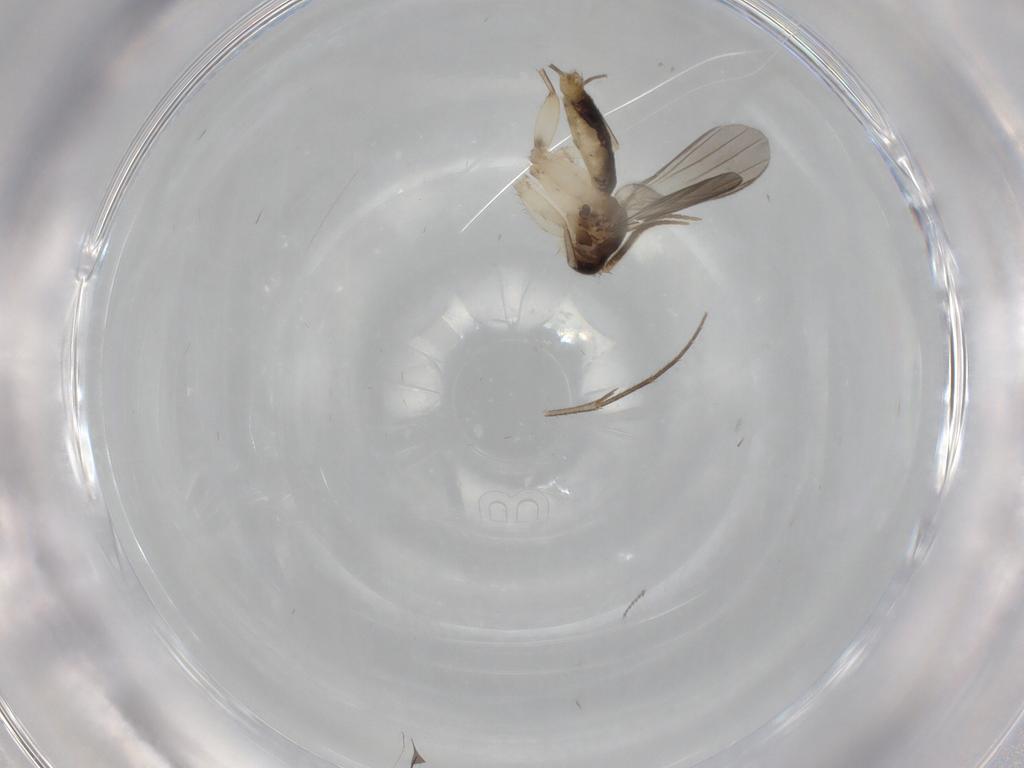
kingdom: Animalia
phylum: Arthropoda
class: Insecta
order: Diptera
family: Mycetophilidae
